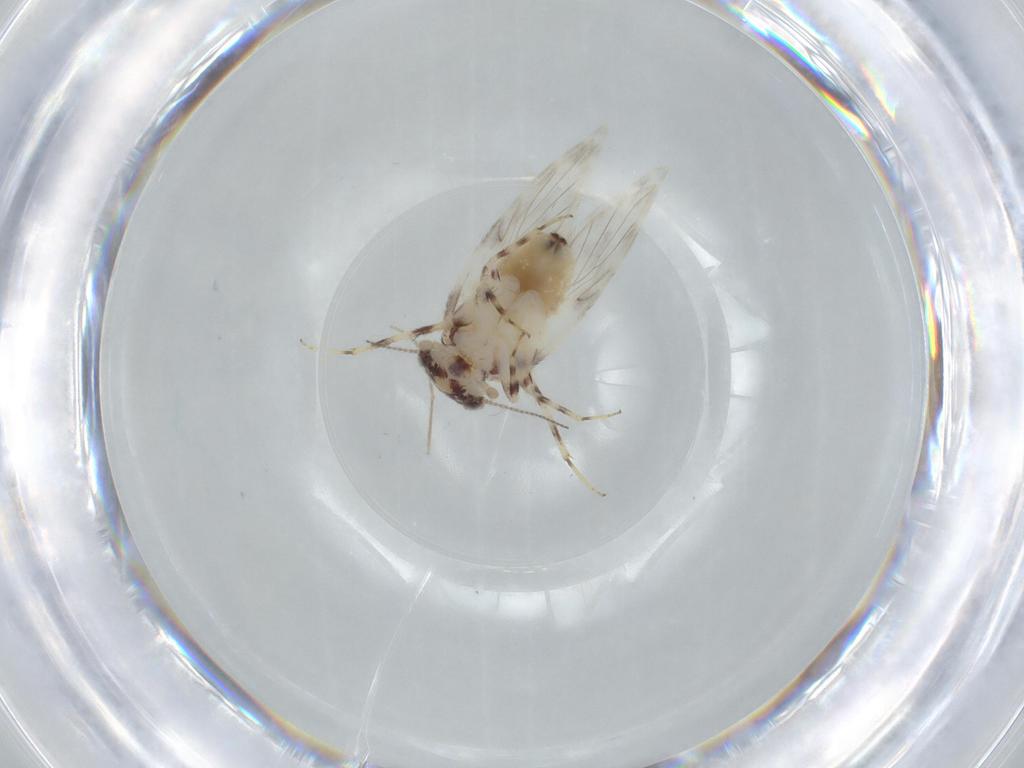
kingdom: Animalia
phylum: Arthropoda
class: Insecta
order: Psocodea
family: Lepidopsocidae
